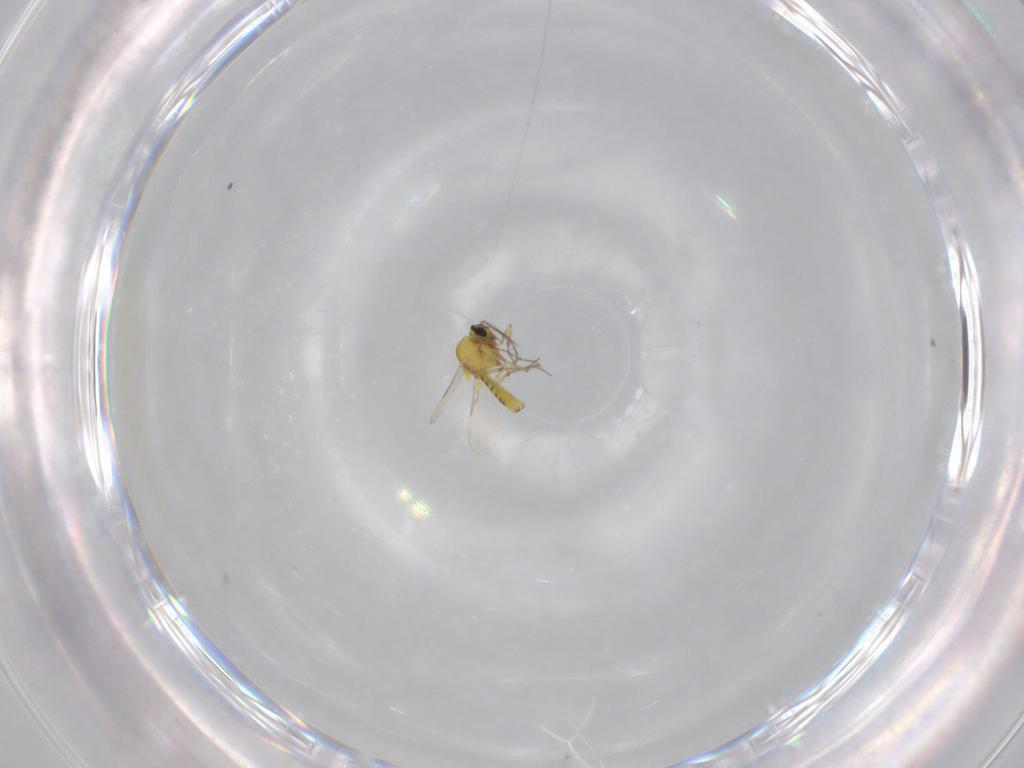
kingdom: Animalia
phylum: Arthropoda
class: Insecta
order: Diptera
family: Ceratopogonidae
